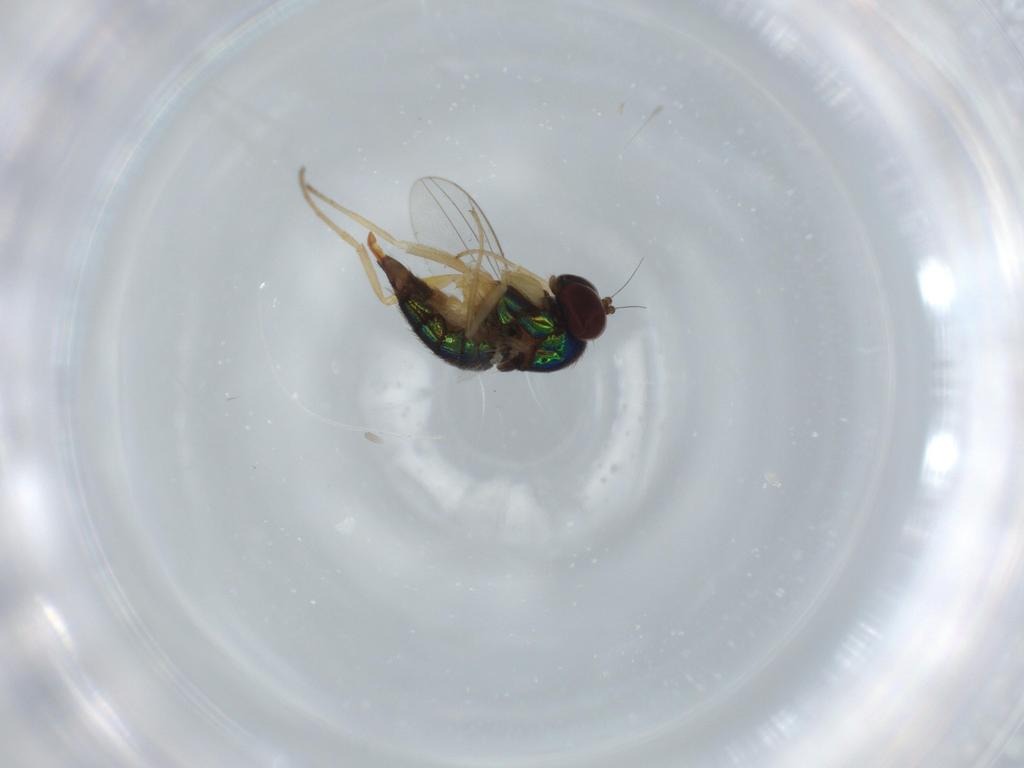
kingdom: Animalia
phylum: Arthropoda
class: Insecta
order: Diptera
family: Dolichopodidae
